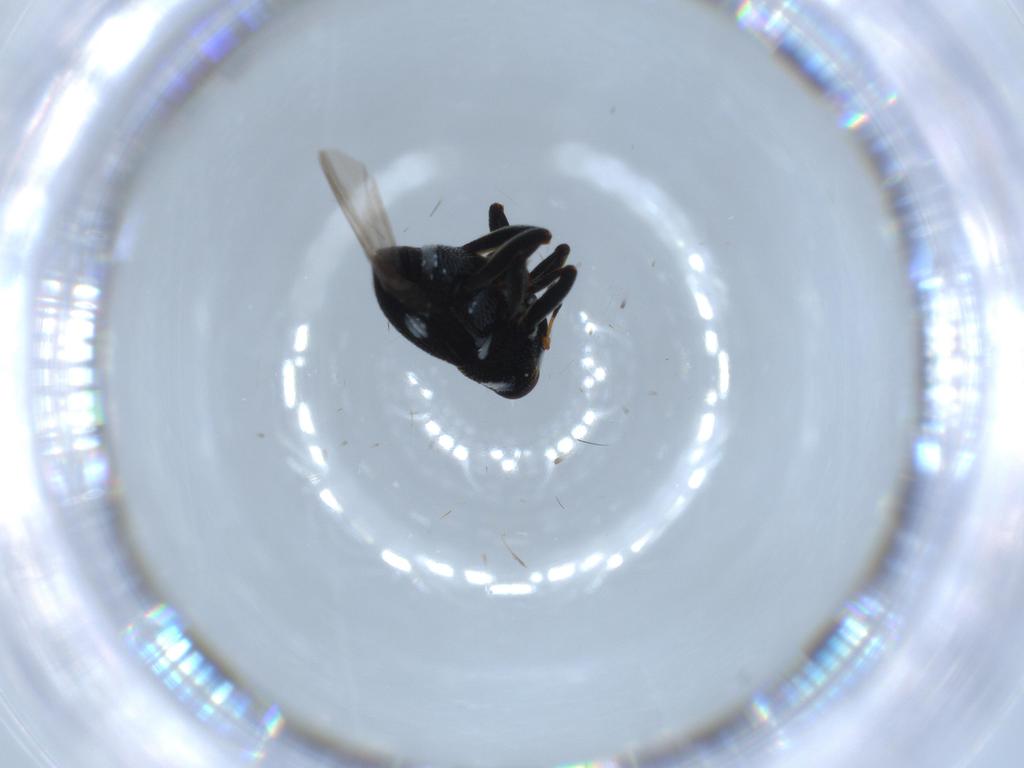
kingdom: Animalia
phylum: Arthropoda
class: Insecta
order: Coleoptera
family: Curculionidae
